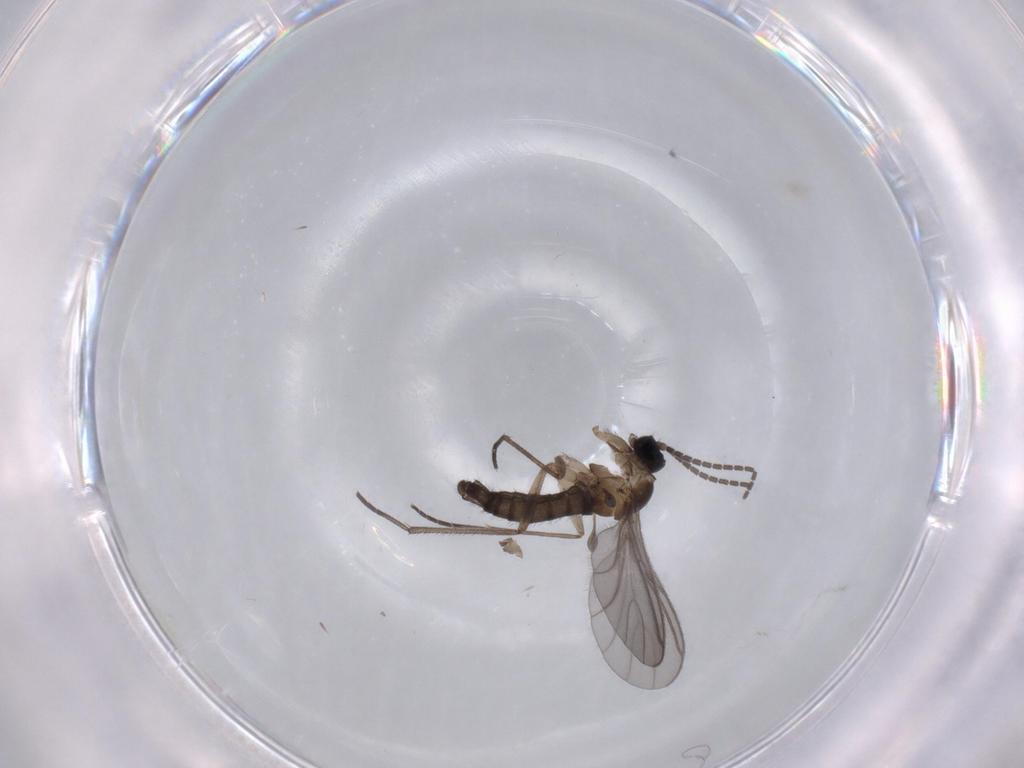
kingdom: Animalia
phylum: Arthropoda
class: Insecta
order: Diptera
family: Sciaridae
